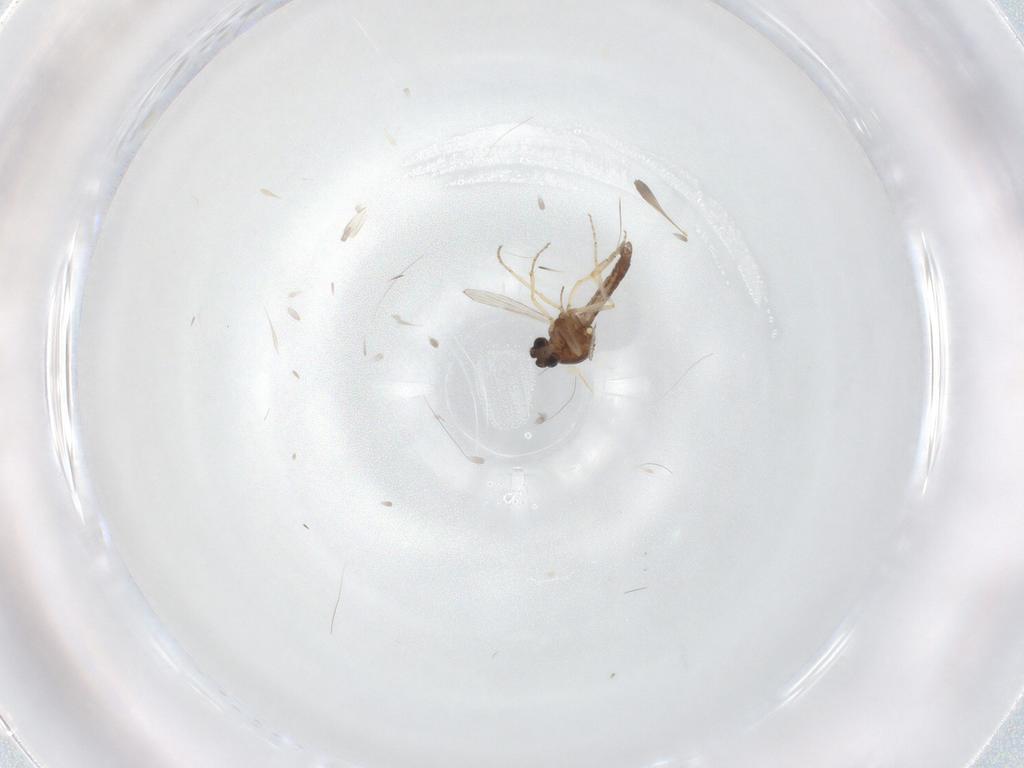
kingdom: Animalia
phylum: Arthropoda
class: Insecta
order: Diptera
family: Ceratopogonidae
